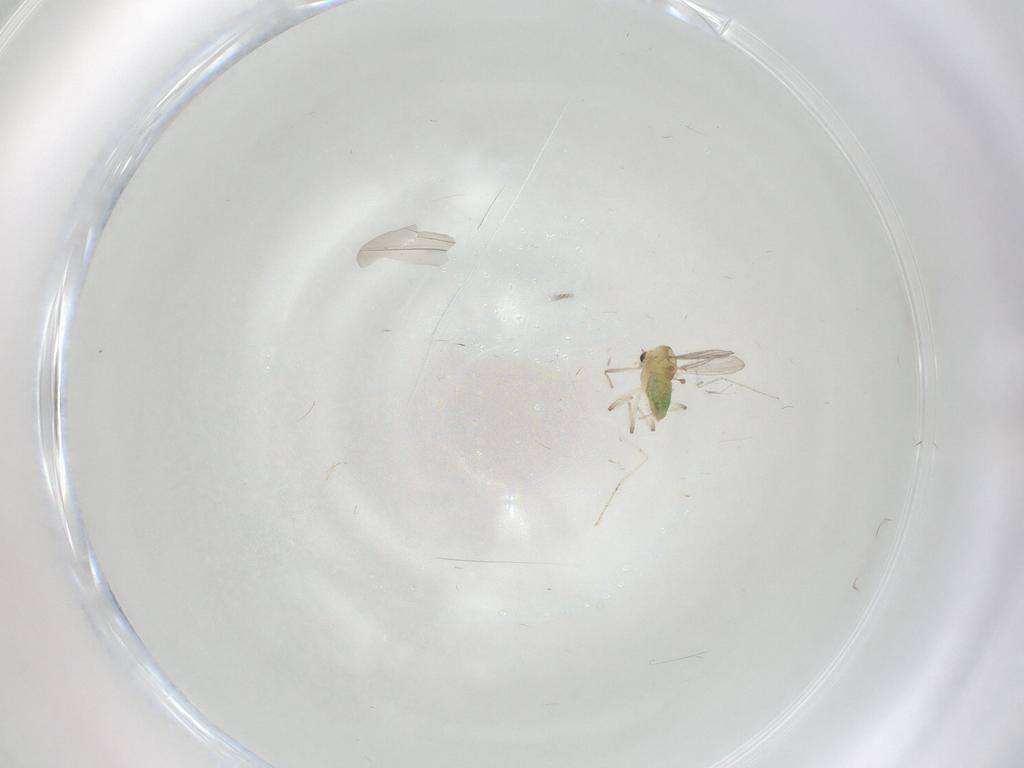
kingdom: Animalia
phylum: Arthropoda
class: Insecta
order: Diptera
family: Chironomidae
